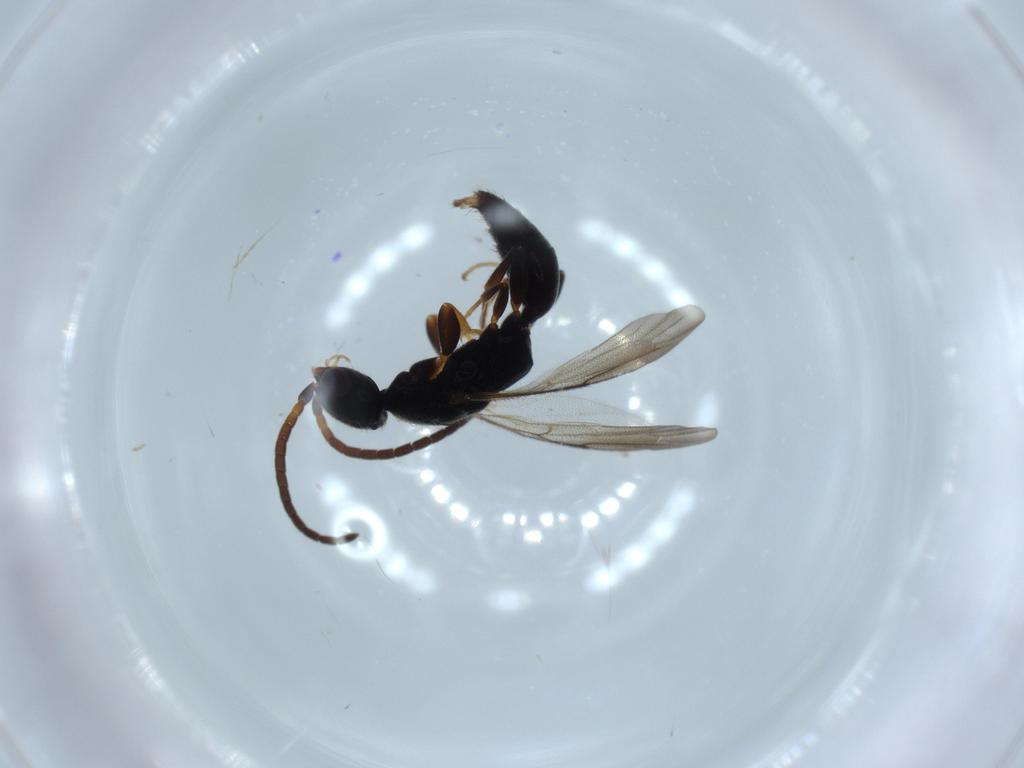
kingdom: Animalia
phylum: Arthropoda
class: Insecta
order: Hymenoptera
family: Bethylidae
